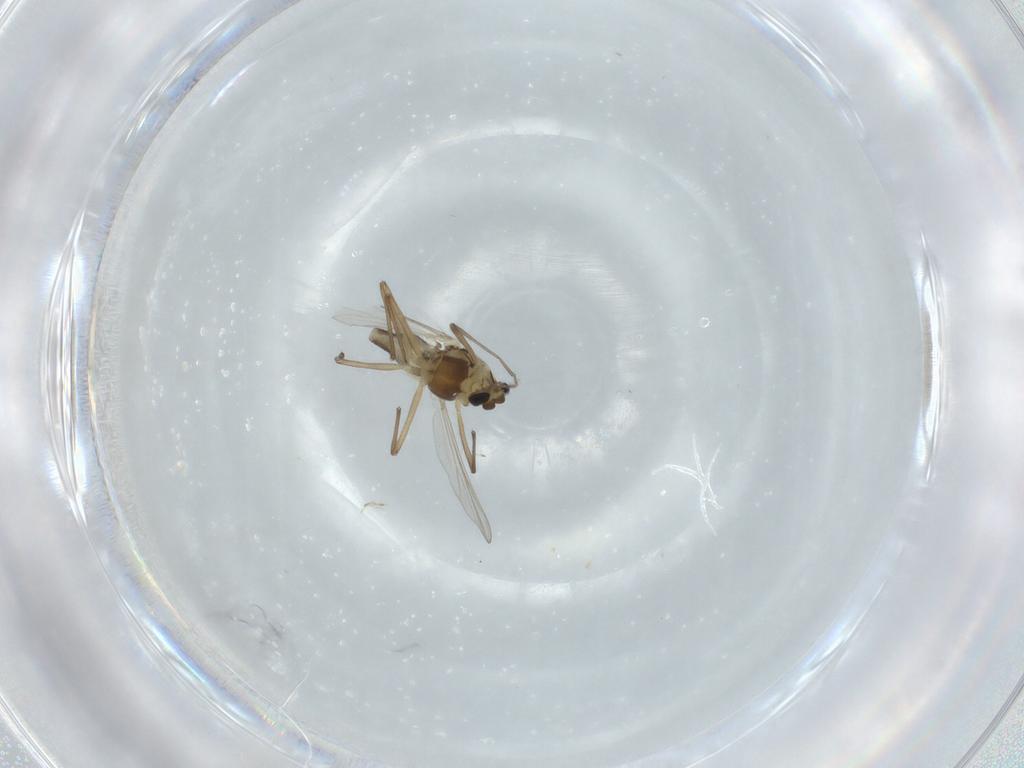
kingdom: Animalia
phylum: Arthropoda
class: Insecta
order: Diptera
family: Chironomidae
